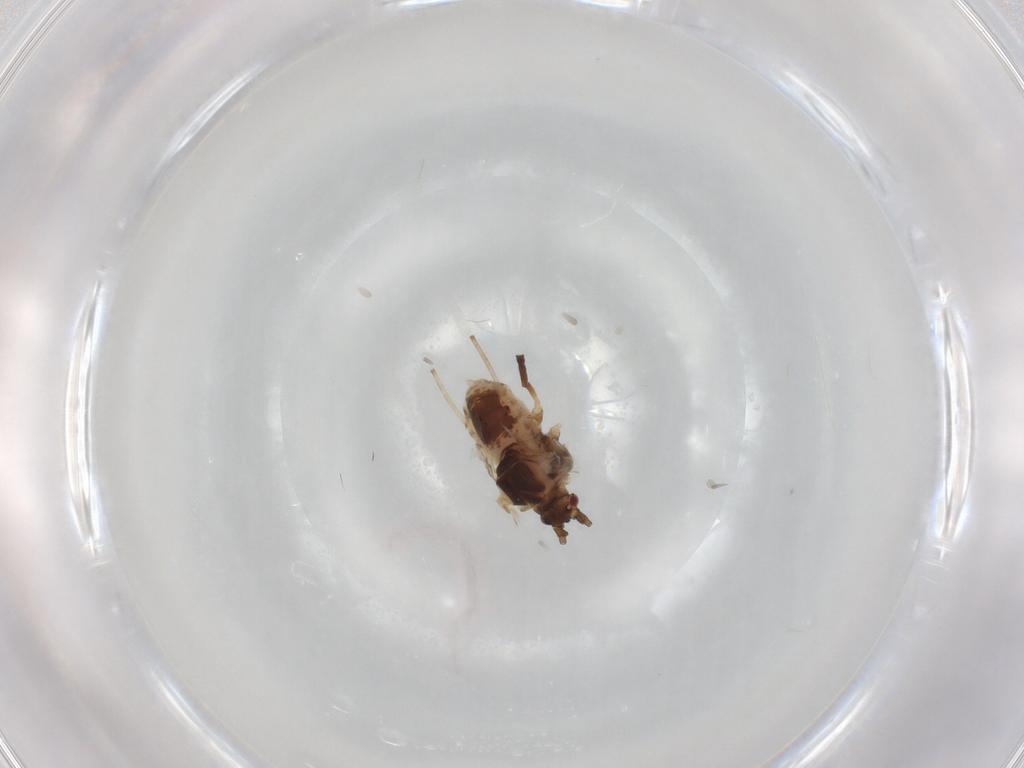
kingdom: Animalia
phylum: Arthropoda
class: Insecta
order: Hemiptera
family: Aphididae
